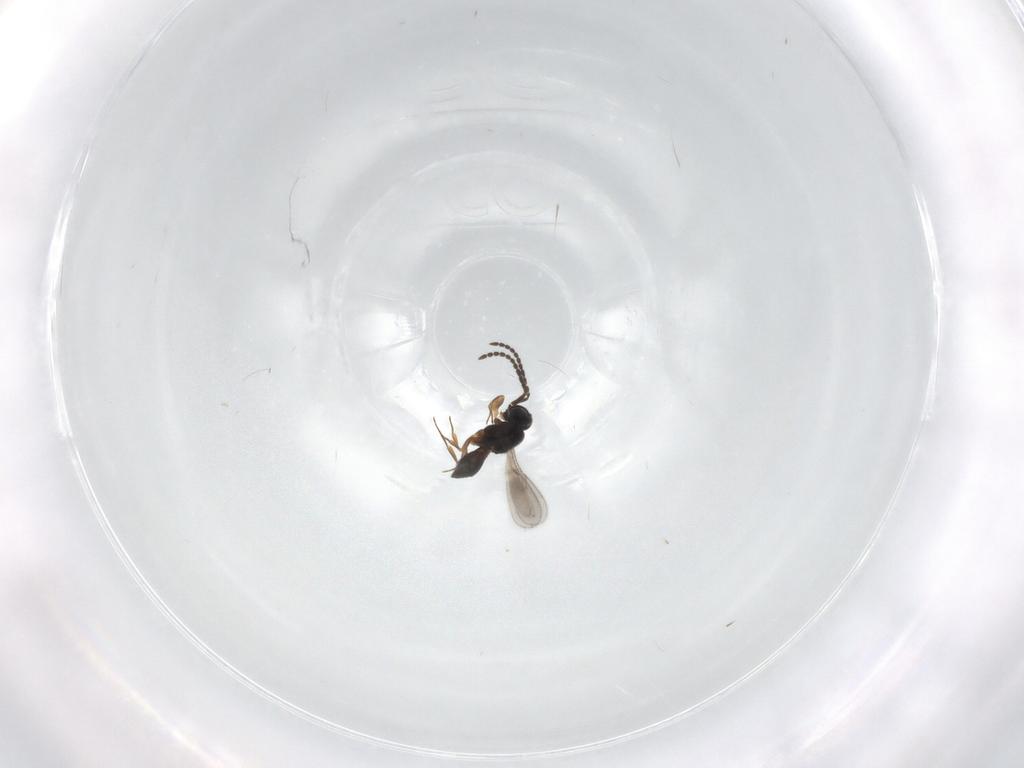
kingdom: Animalia
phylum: Arthropoda
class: Insecta
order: Hymenoptera
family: Scelionidae
